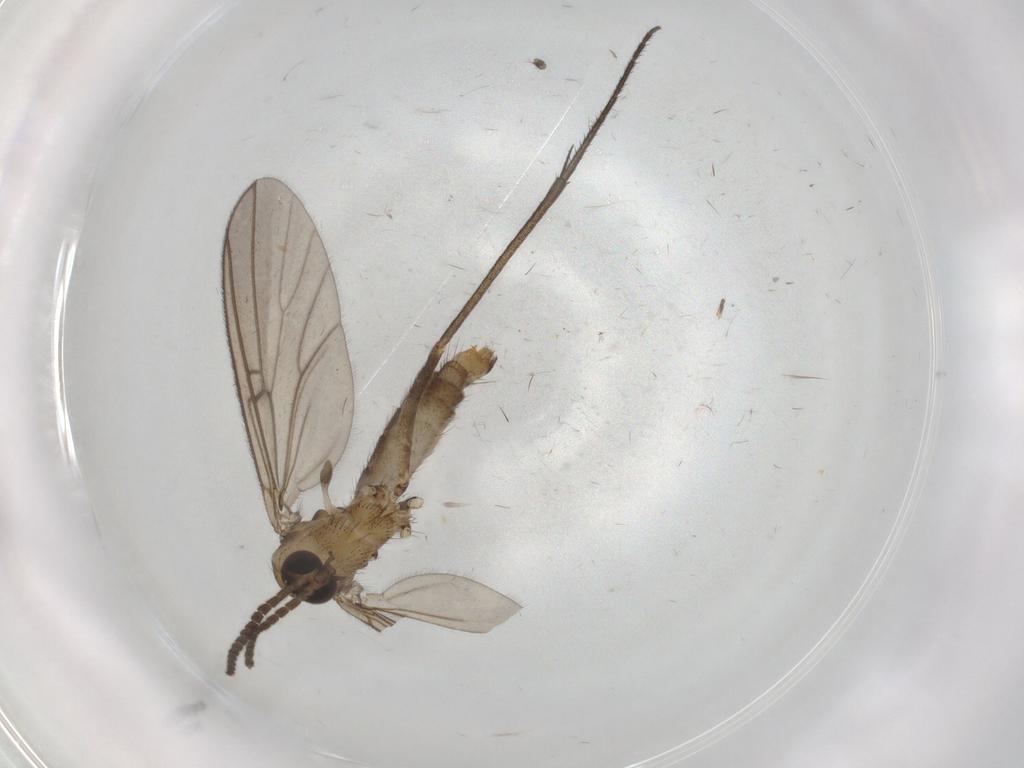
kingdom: Animalia
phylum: Arthropoda
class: Insecta
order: Diptera
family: Mycetophilidae
